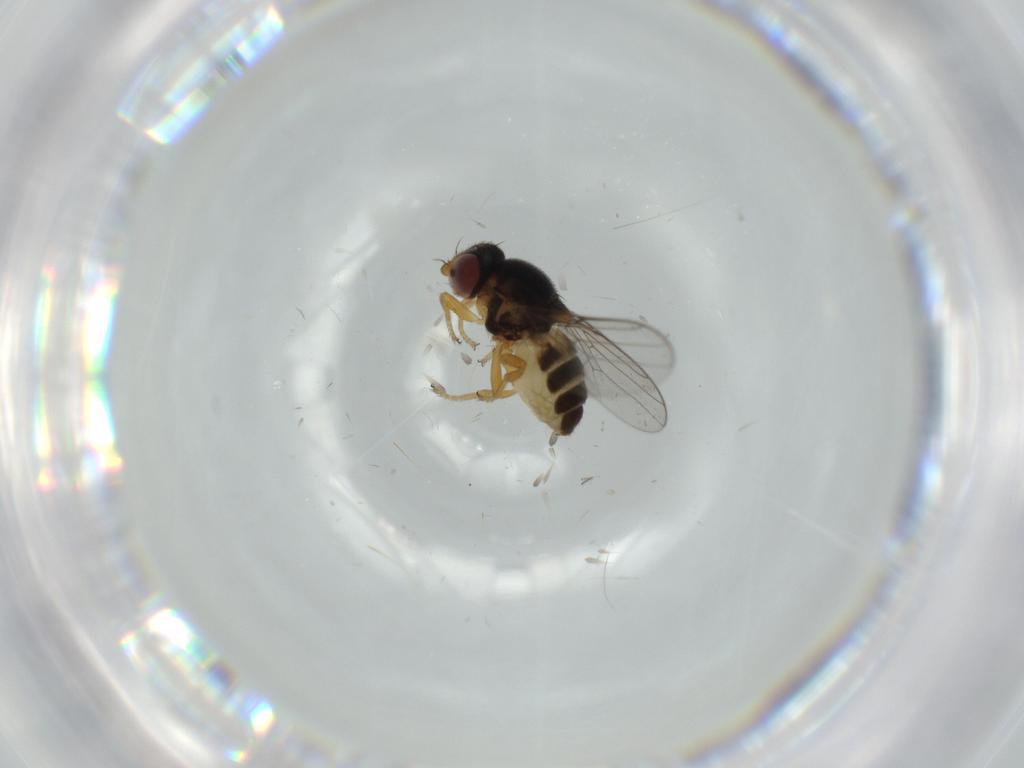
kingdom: Animalia
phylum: Arthropoda
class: Insecta
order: Diptera
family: Chloropidae
